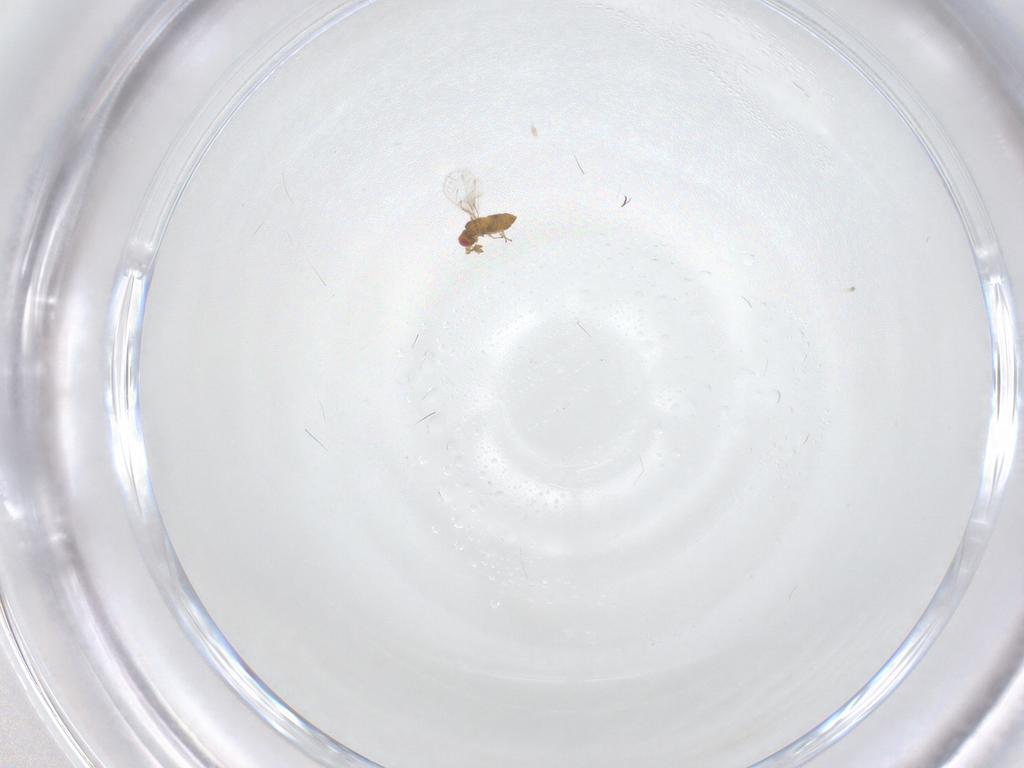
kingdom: Animalia
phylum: Arthropoda
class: Insecta
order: Hymenoptera
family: Trichogrammatidae
